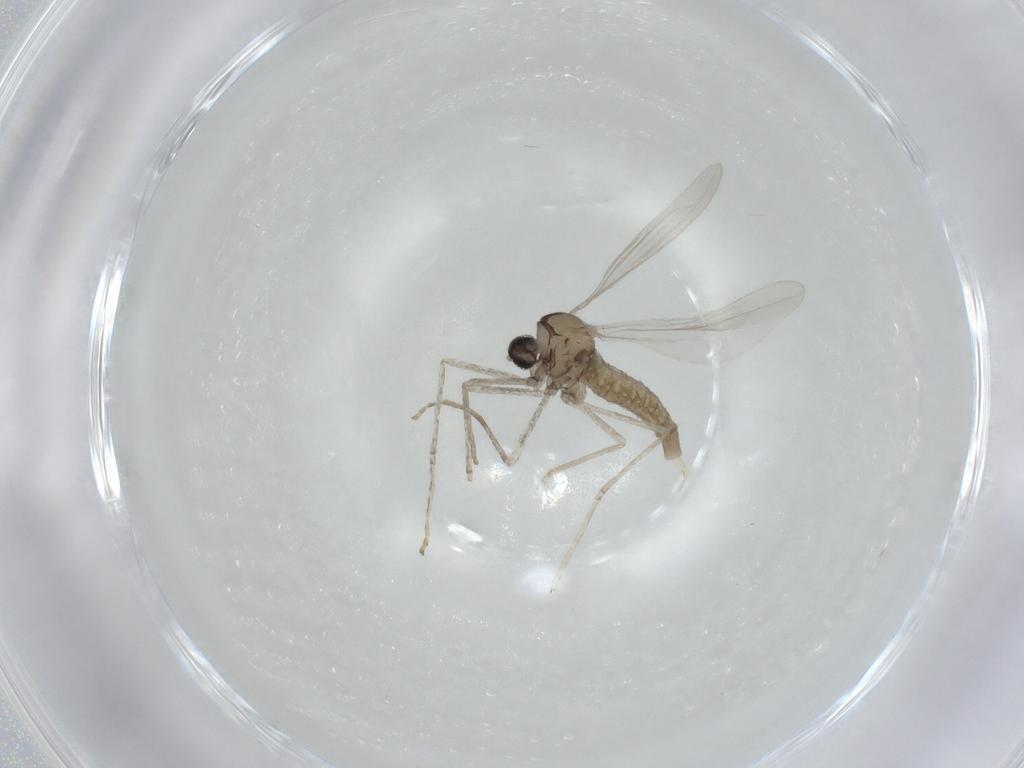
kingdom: Animalia
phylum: Arthropoda
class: Insecta
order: Diptera
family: Cecidomyiidae
